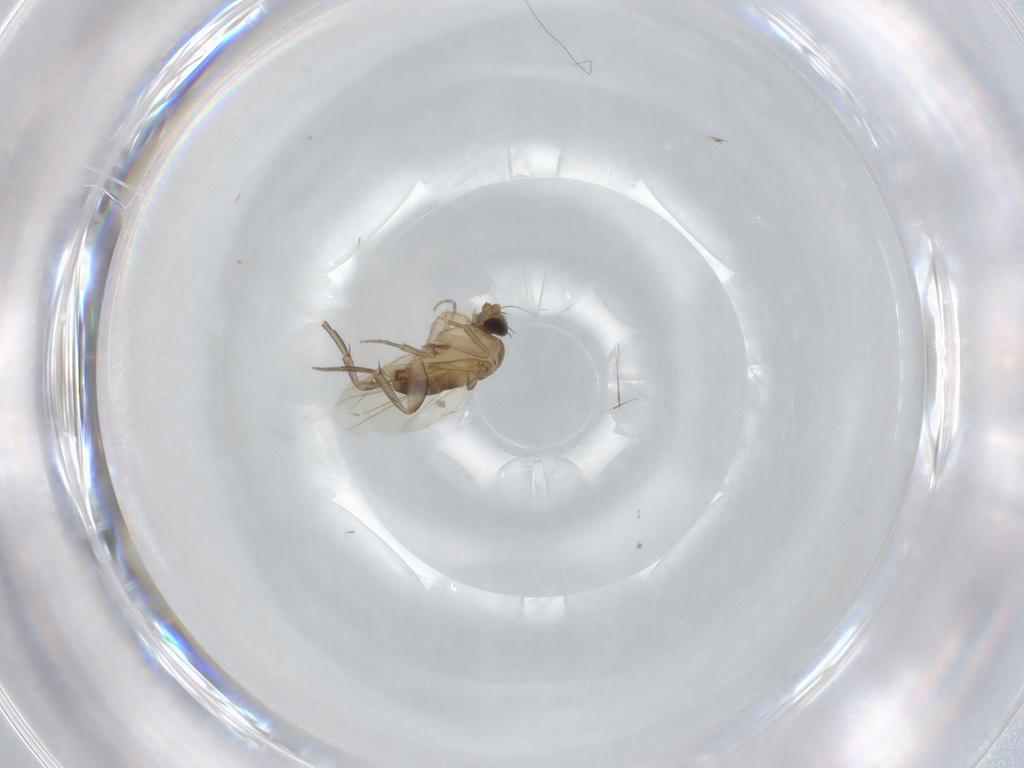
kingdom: Animalia
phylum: Arthropoda
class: Insecta
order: Diptera
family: Phoridae
